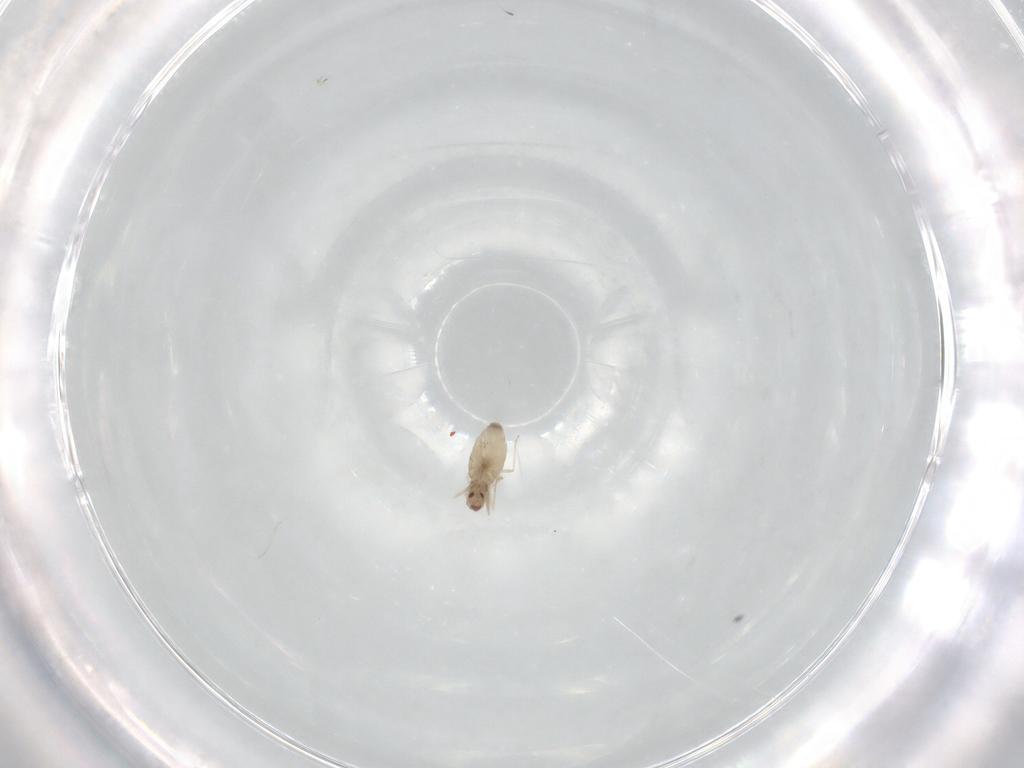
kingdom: Animalia
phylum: Arthropoda
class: Insecta
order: Diptera
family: Cecidomyiidae
